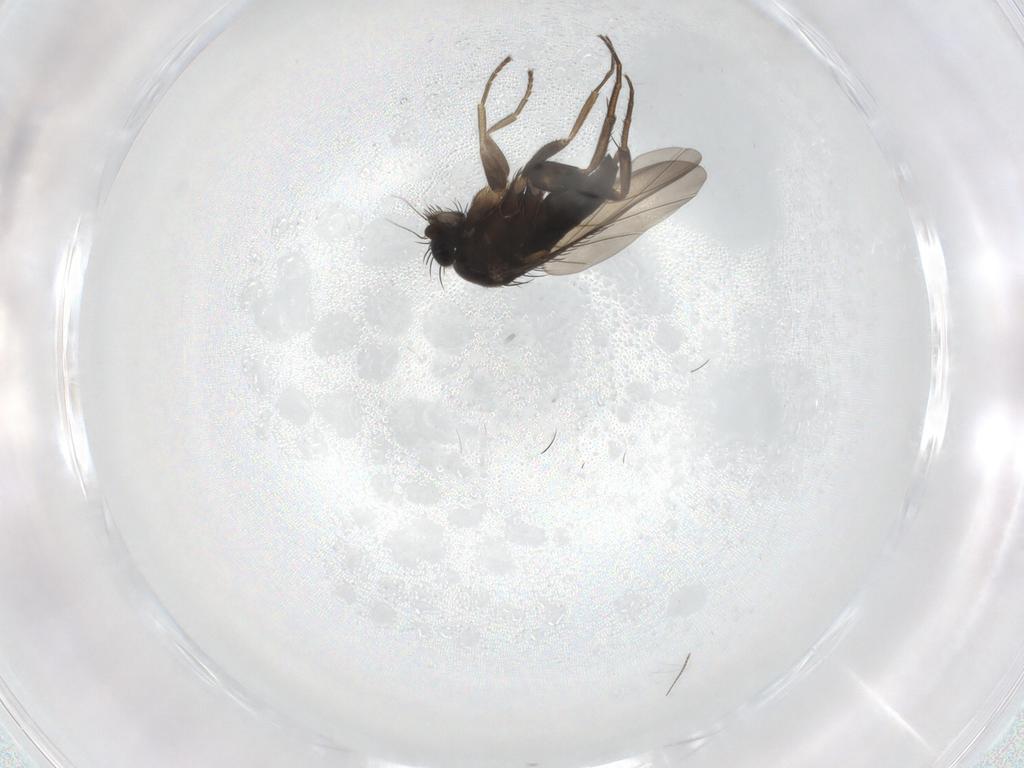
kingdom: Animalia
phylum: Arthropoda
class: Insecta
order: Diptera
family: Phoridae
